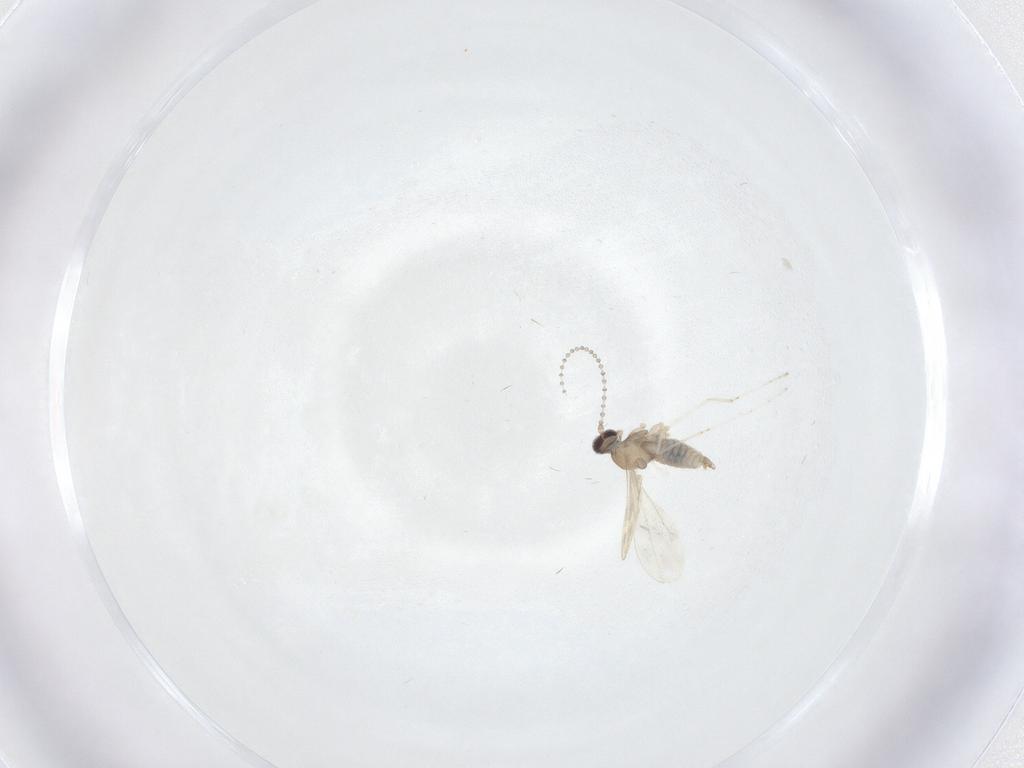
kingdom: Animalia
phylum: Arthropoda
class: Insecta
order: Diptera
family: Cecidomyiidae
